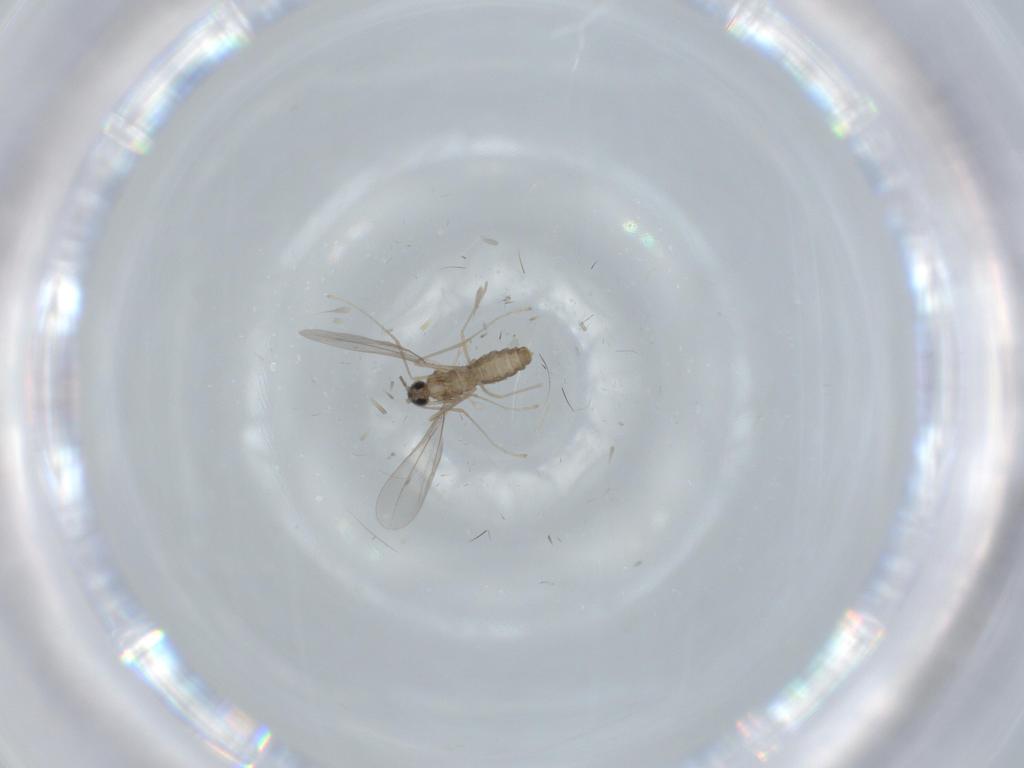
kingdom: Animalia
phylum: Arthropoda
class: Insecta
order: Diptera
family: Cecidomyiidae
